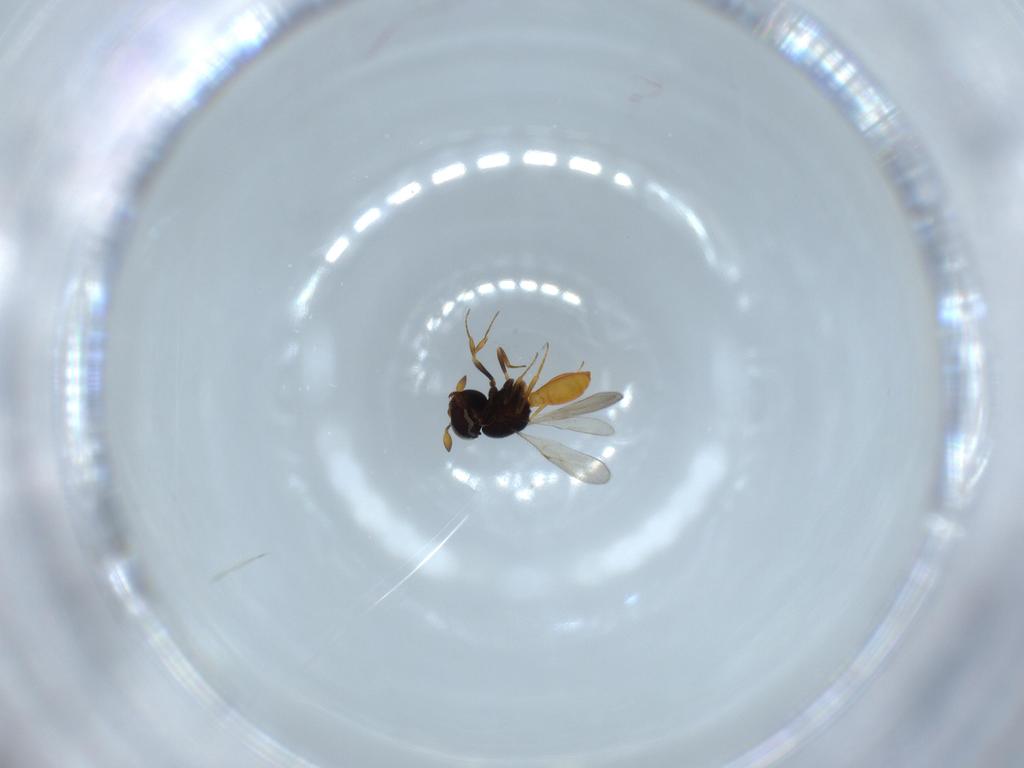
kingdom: Animalia
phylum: Arthropoda
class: Insecta
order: Hymenoptera
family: Scelionidae
